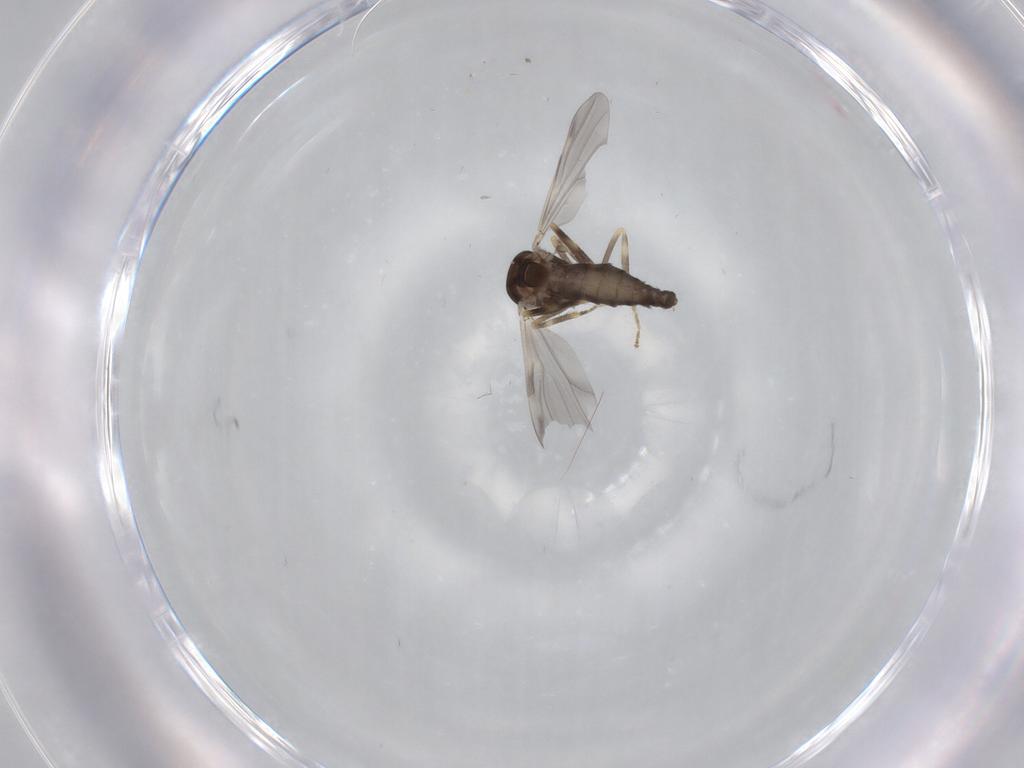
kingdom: Animalia
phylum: Arthropoda
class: Insecta
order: Diptera
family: Ceratopogonidae
